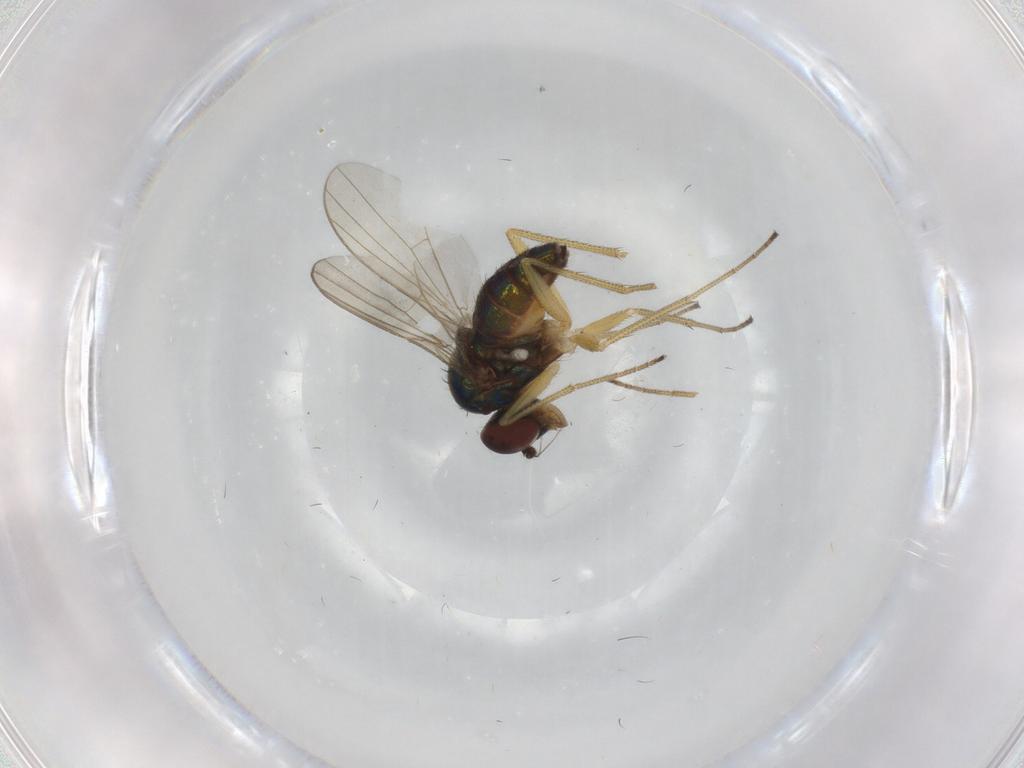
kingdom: Animalia
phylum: Arthropoda
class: Insecta
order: Diptera
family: Dolichopodidae
